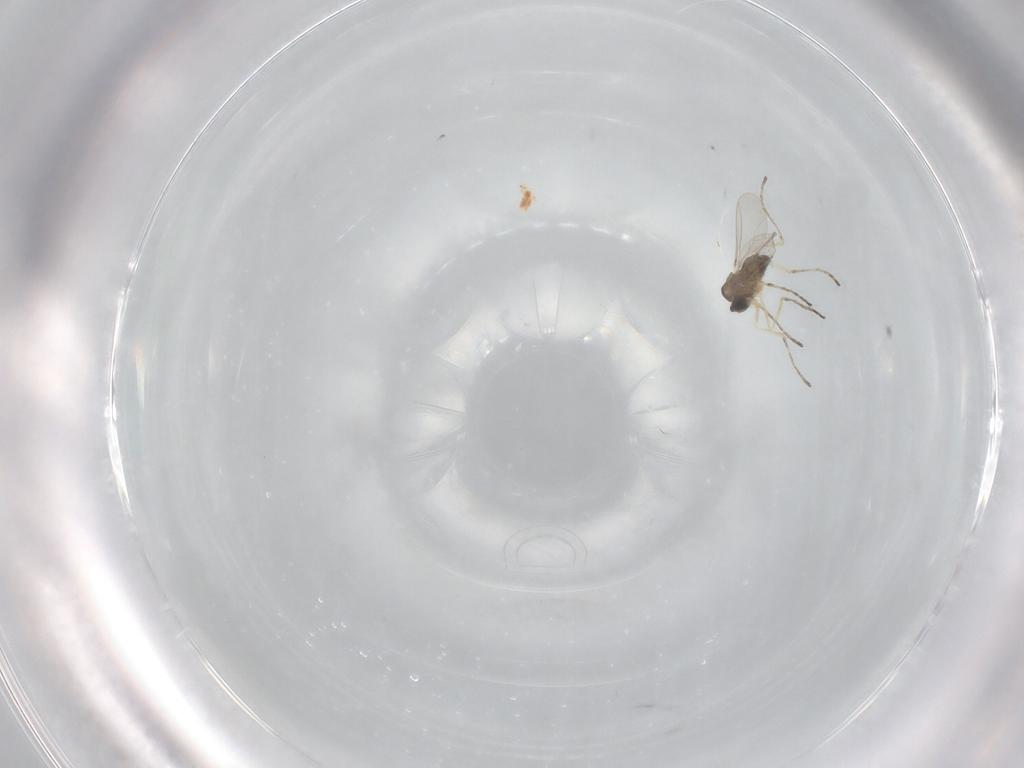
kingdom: Animalia
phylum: Arthropoda
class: Insecta
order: Diptera
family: Cecidomyiidae
